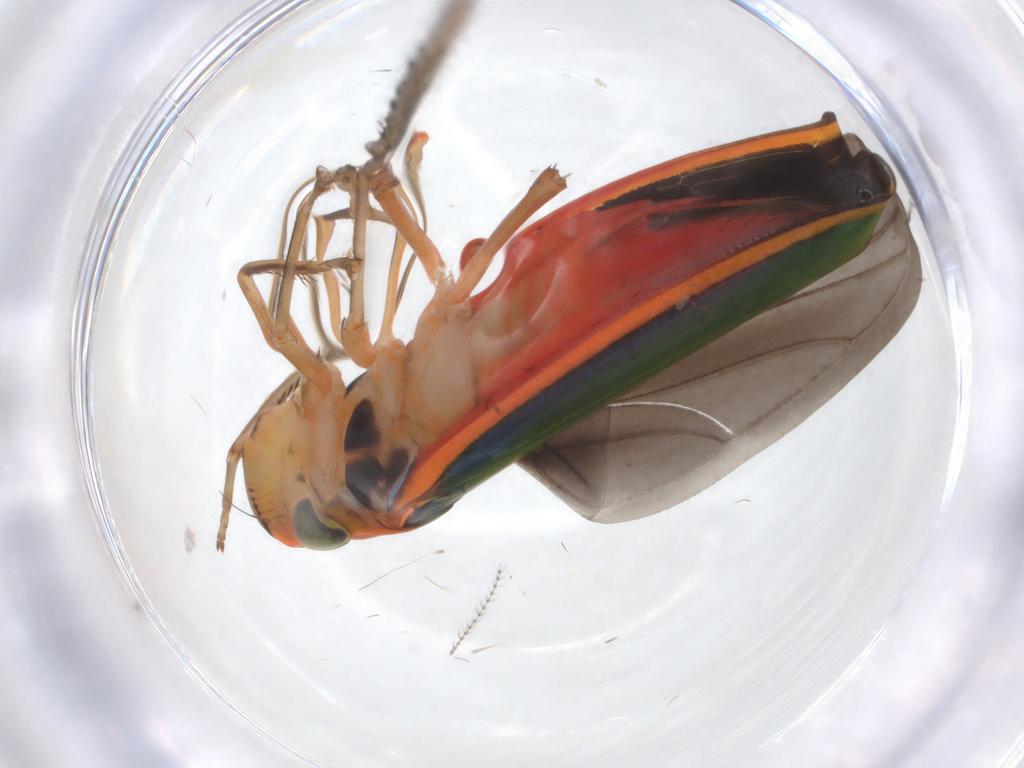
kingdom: Animalia
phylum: Arthropoda
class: Insecta
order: Hemiptera
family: Cicadellidae
